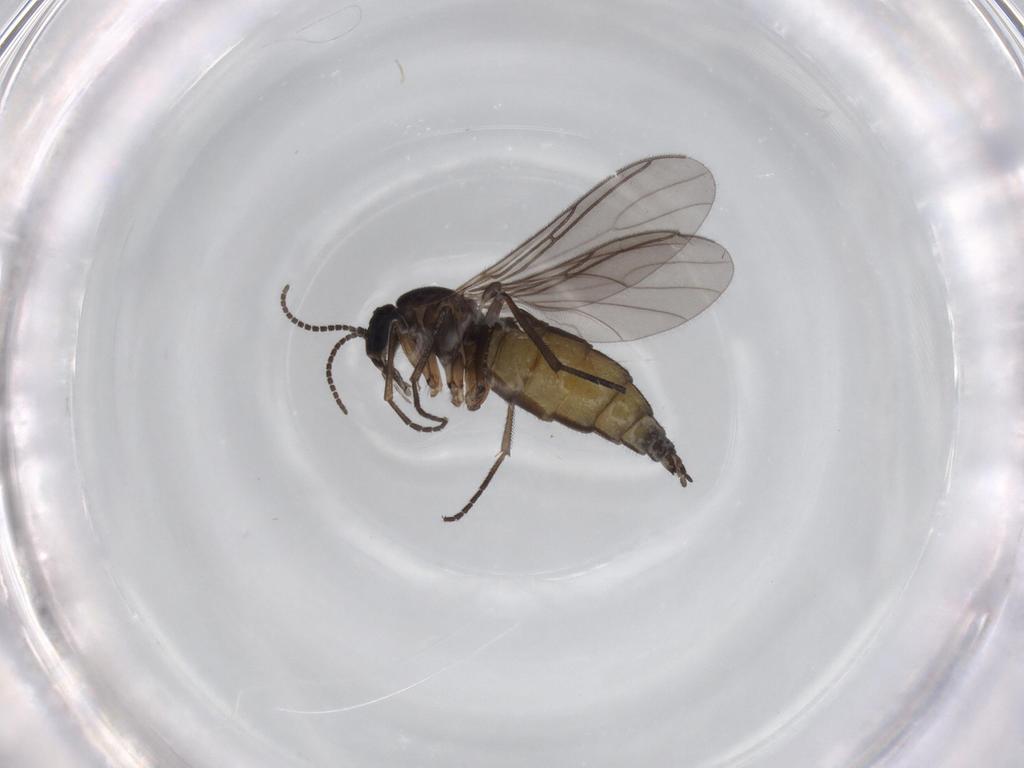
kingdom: Animalia
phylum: Arthropoda
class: Insecta
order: Diptera
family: Sciaridae
